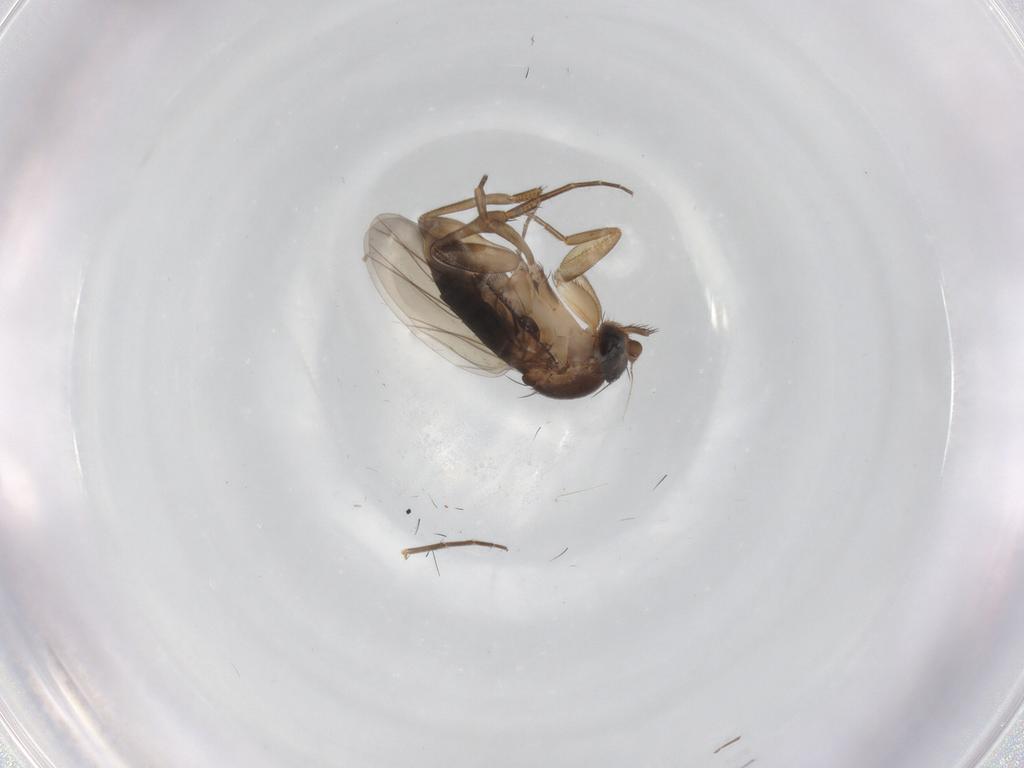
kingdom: Animalia
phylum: Arthropoda
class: Insecta
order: Diptera
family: Phoridae
